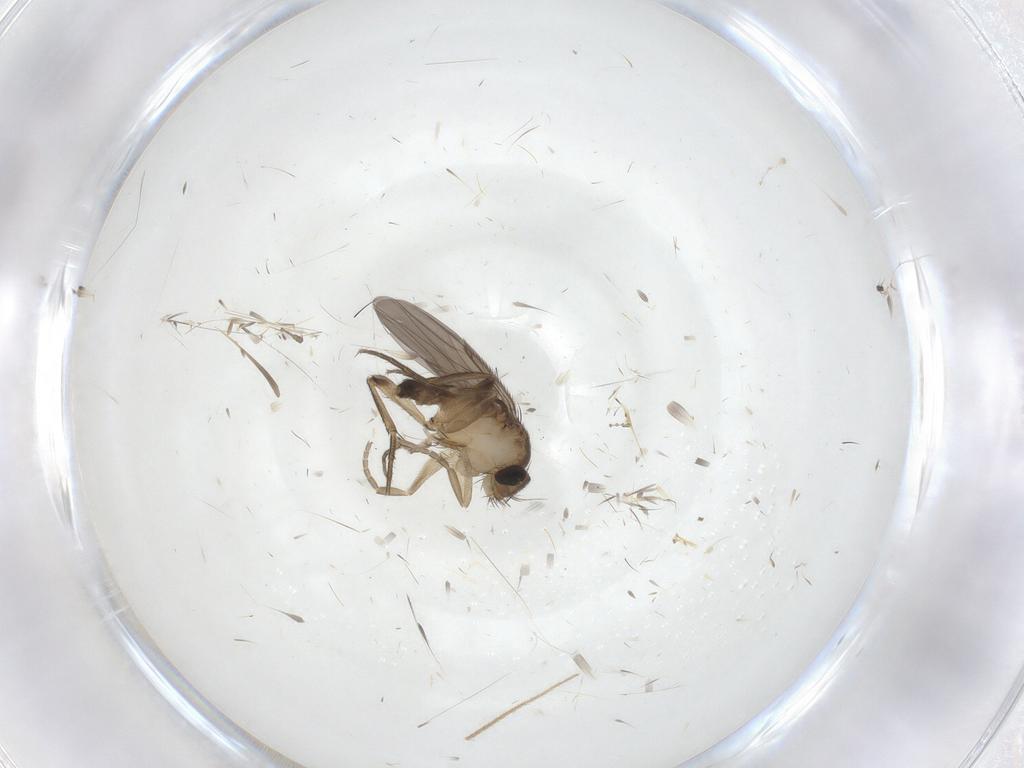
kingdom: Animalia
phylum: Arthropoda
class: Insecta
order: Diptera
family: Phoridae
